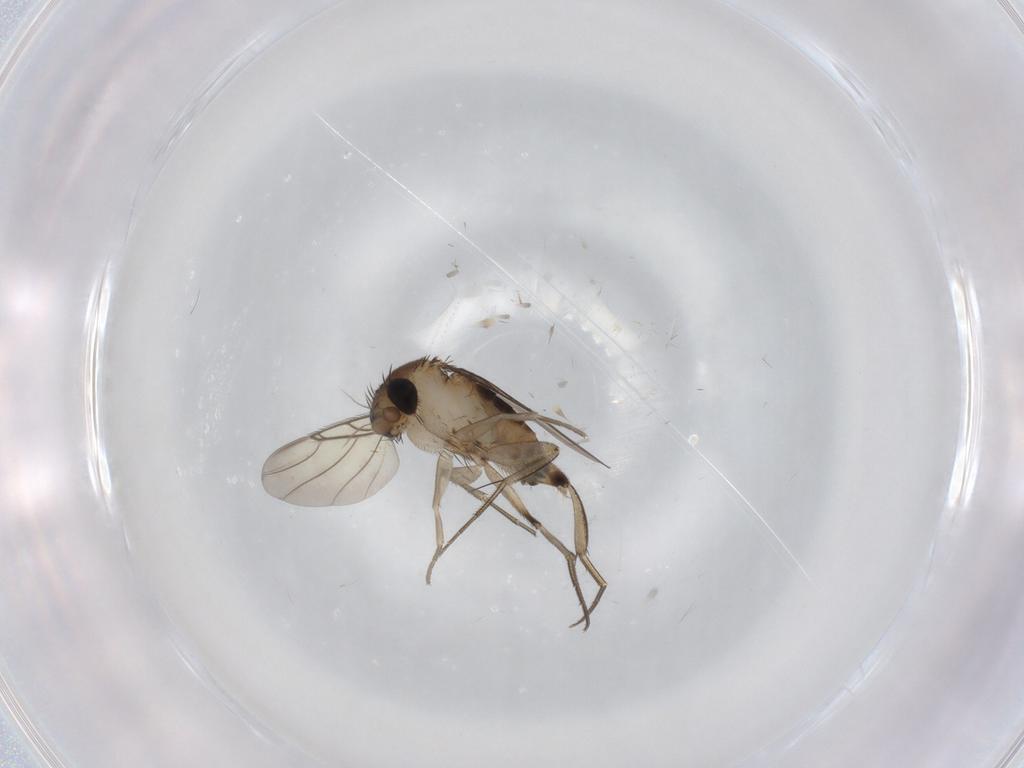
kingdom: Animalia
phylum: Arthropoda
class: Insecta
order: Diptera
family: Phoridae
